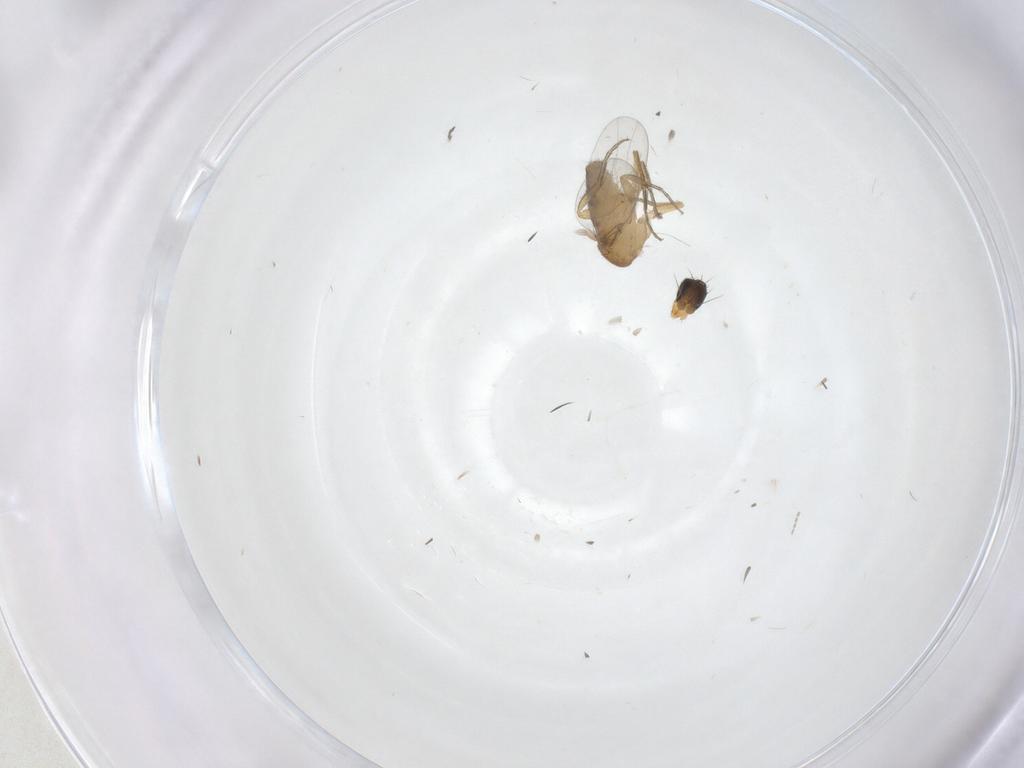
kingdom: Animalia
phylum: Arthropoda
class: Insecta
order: Diptera
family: Phoridae
